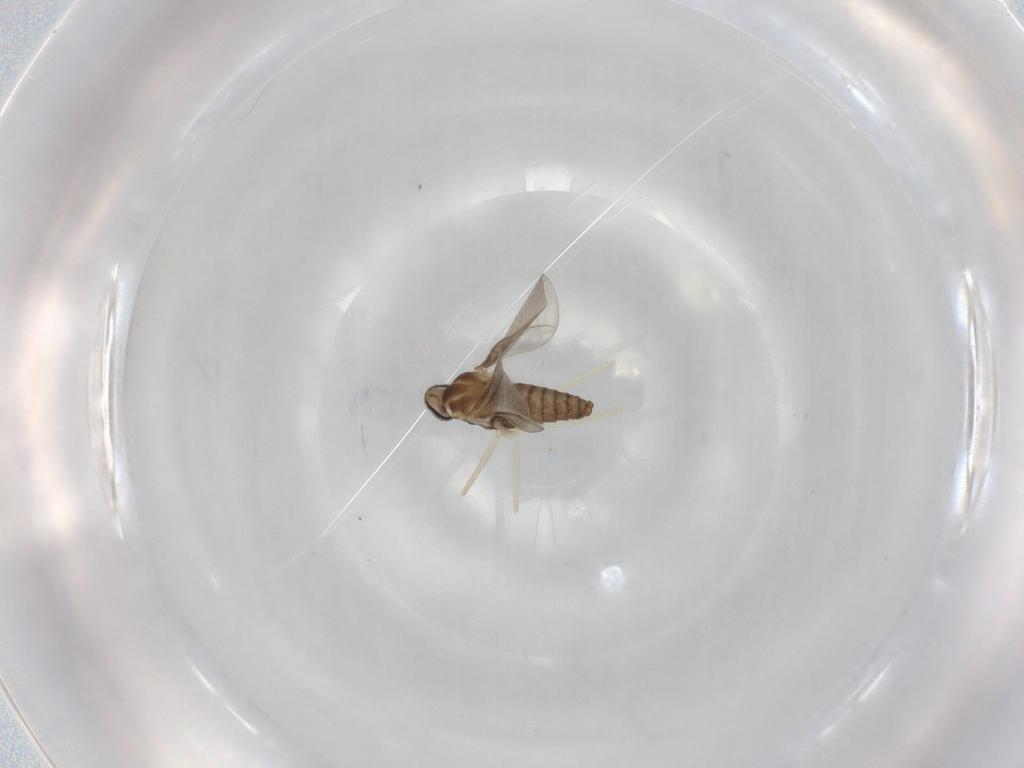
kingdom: Animalia
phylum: Arthropoda
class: Insecta
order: Diptera
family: Cecidomyiidae
